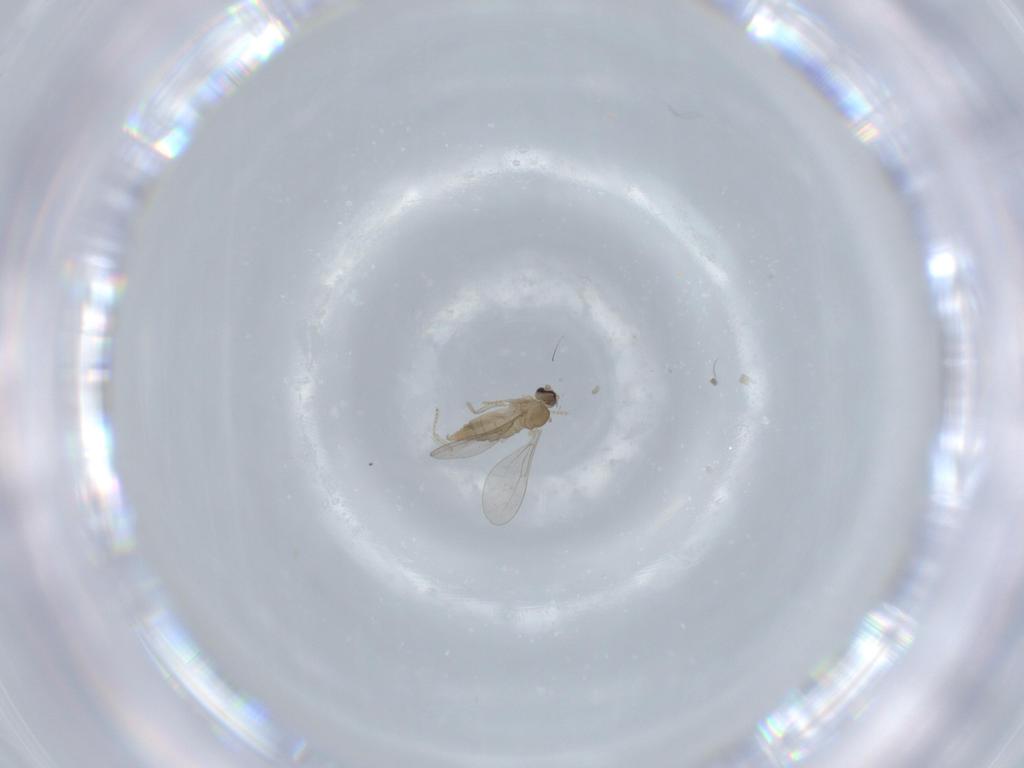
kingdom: Animalia
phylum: Arthropoda
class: Insecta
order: Diptera
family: Cecidomyiidae
